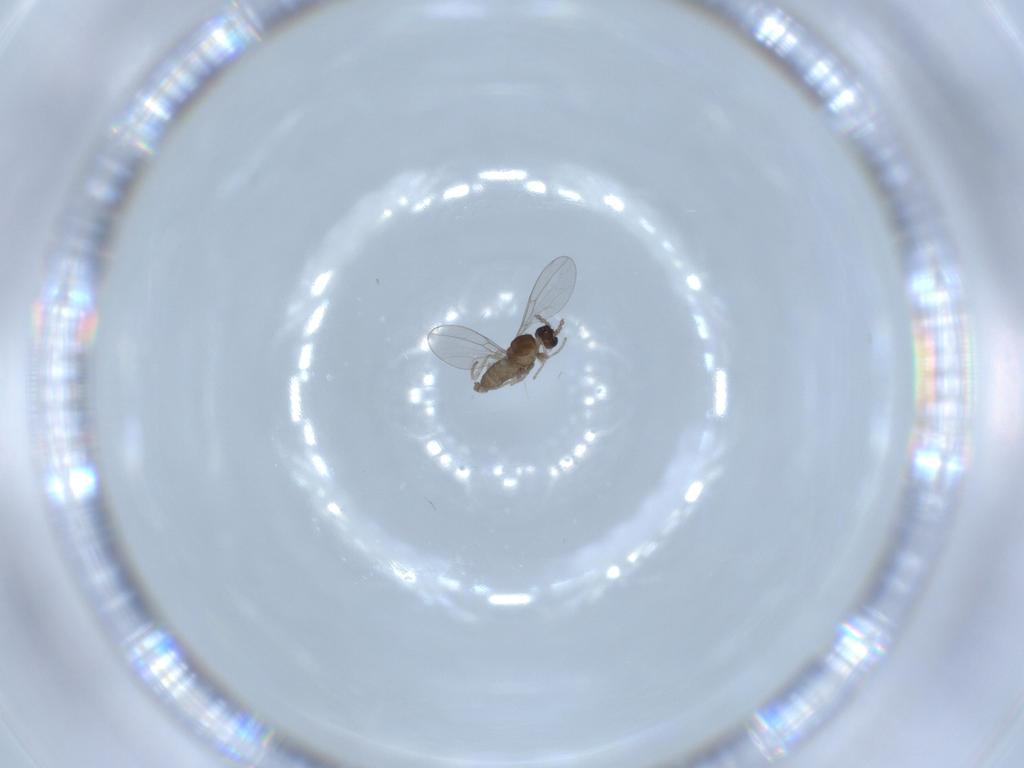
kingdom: Animalia
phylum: Arthropoda
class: Insecta
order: Diptera
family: Cecidomyiidae
